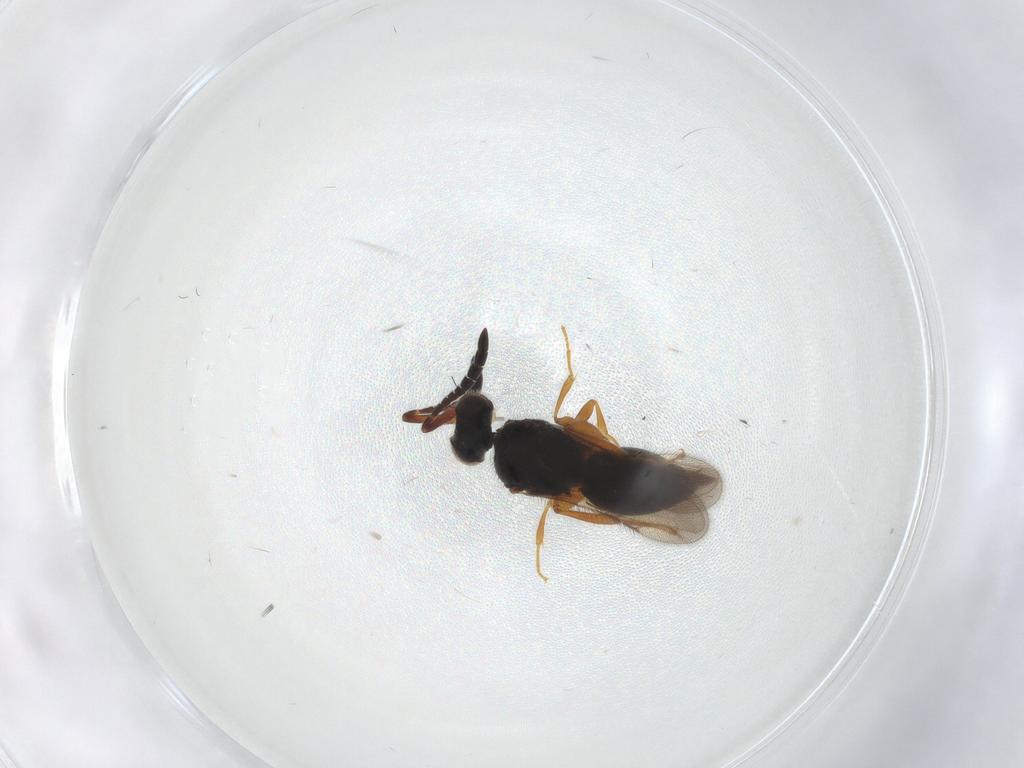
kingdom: Animalia
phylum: Arthropoda
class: Insecta
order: Hymenoptera
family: Ceraphronidae
